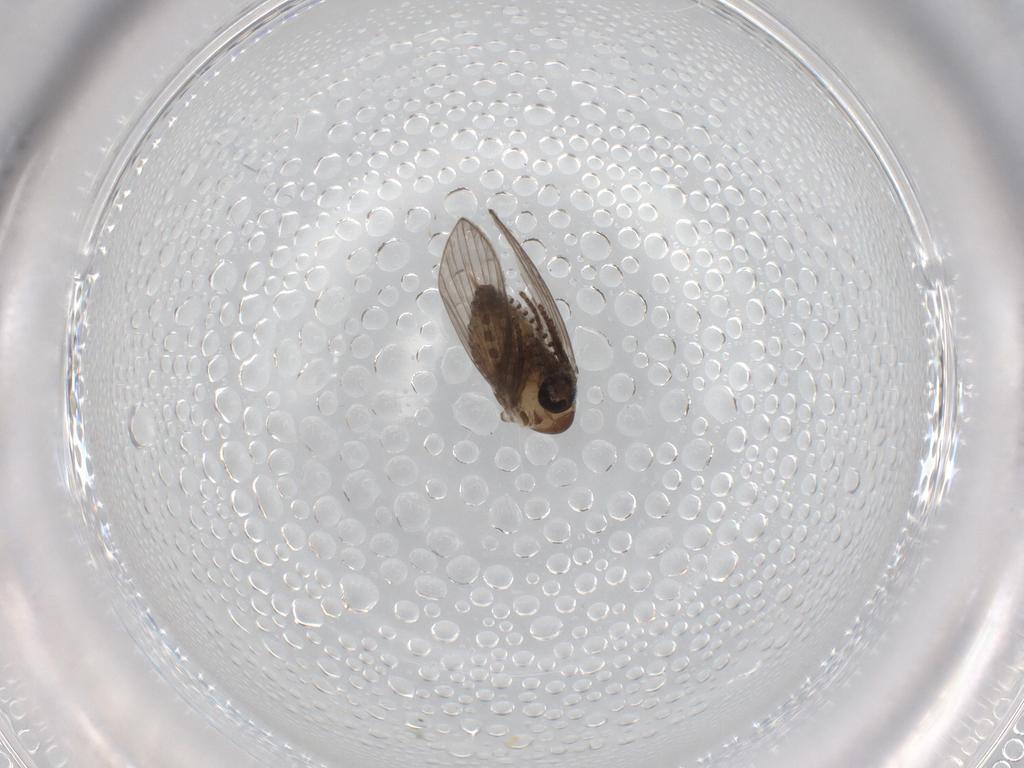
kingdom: Animalia
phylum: Arthropoda
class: Insecta
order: Diptera
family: Psychodidae
